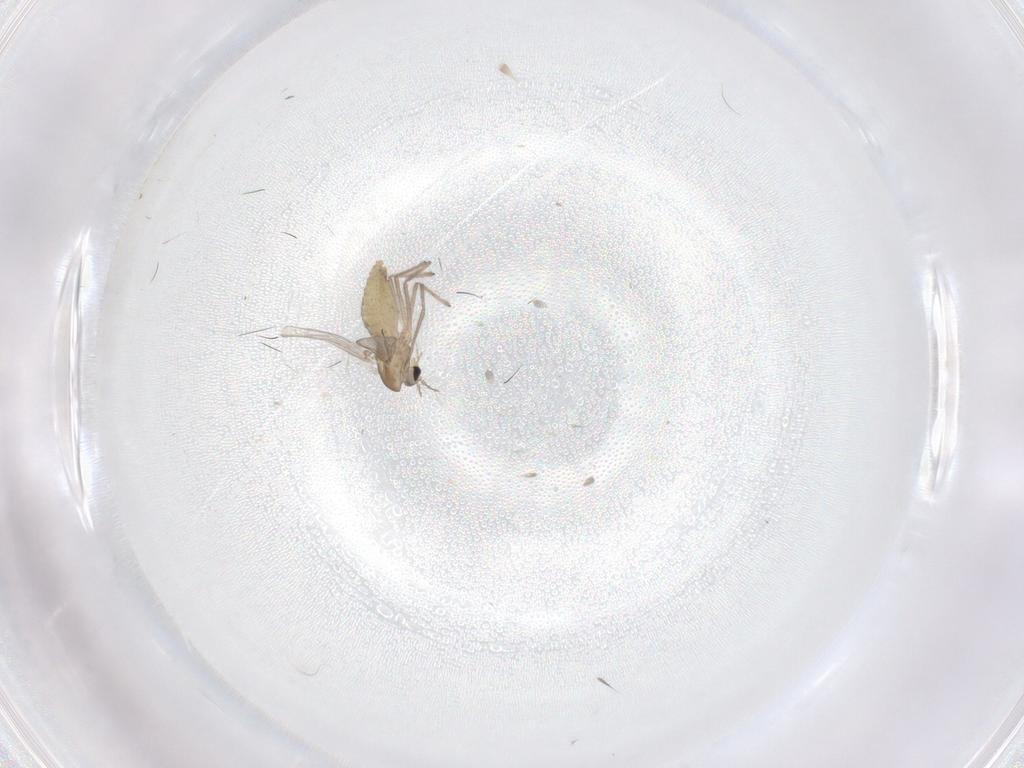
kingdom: Animalia
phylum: Arthropoda
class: Insecta
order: Diptera
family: Chironomidae
